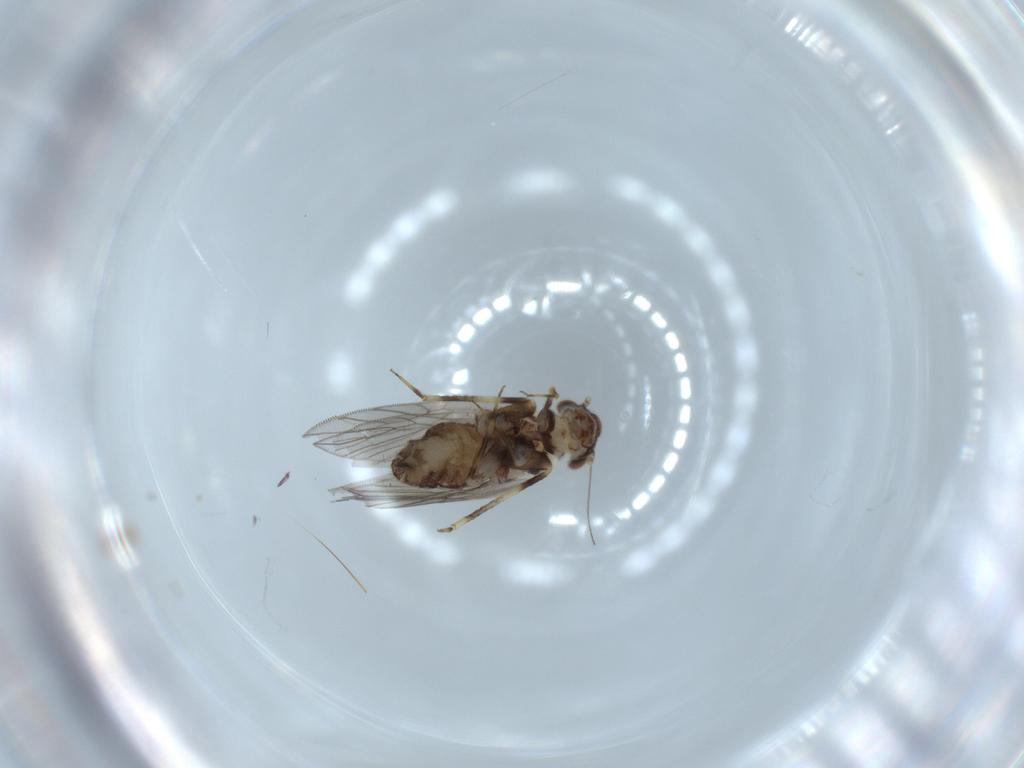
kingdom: Animalia
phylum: Arthropoda
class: Insecta
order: Psocodea
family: Lepidopsocidae
